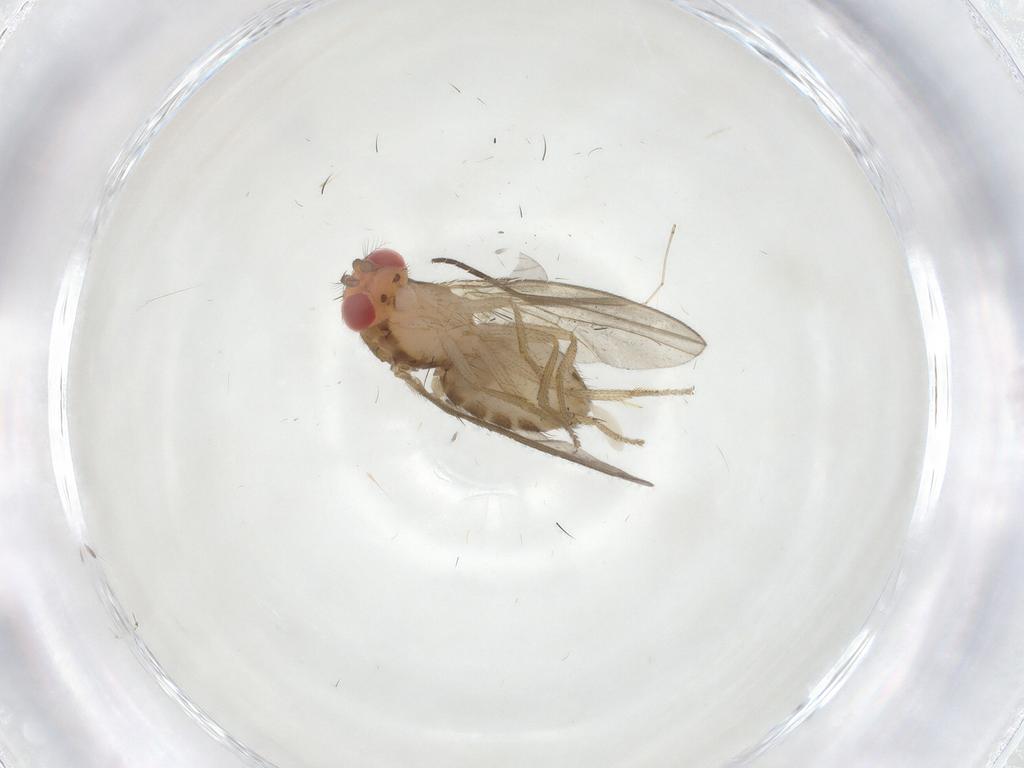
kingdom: Animalia
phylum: Arthropoda
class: Insecta
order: Diptera
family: Drosophilidae
